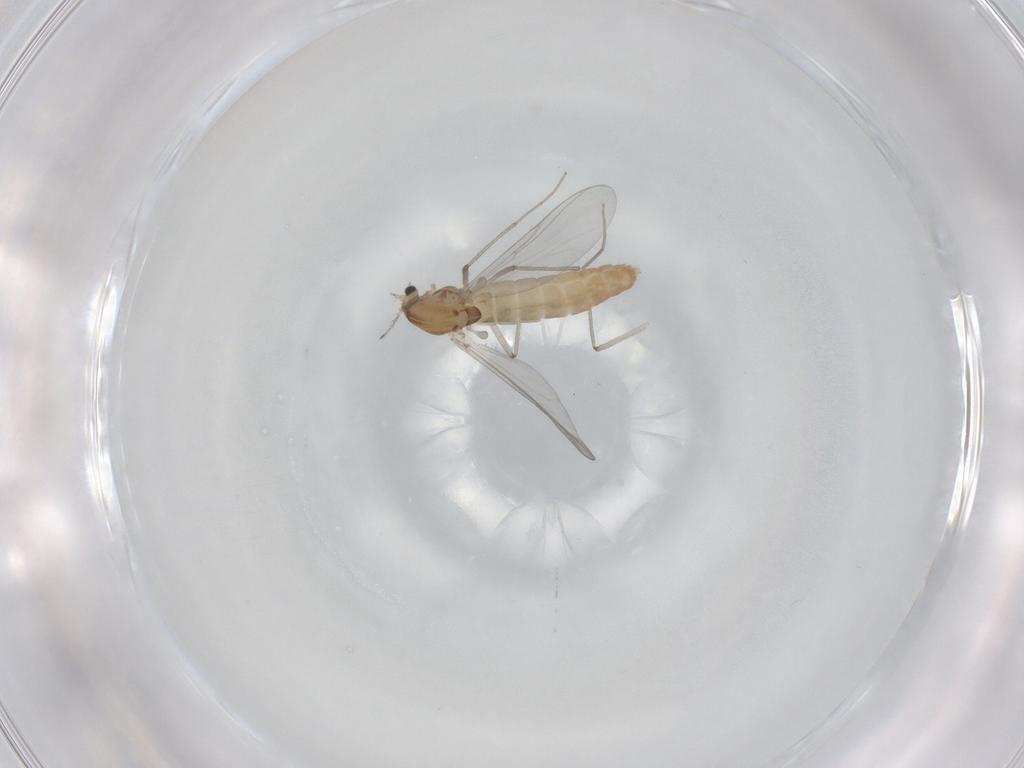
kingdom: Animalia
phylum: Arthropoda
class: Insecta
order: Diptera
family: Chironomidae
